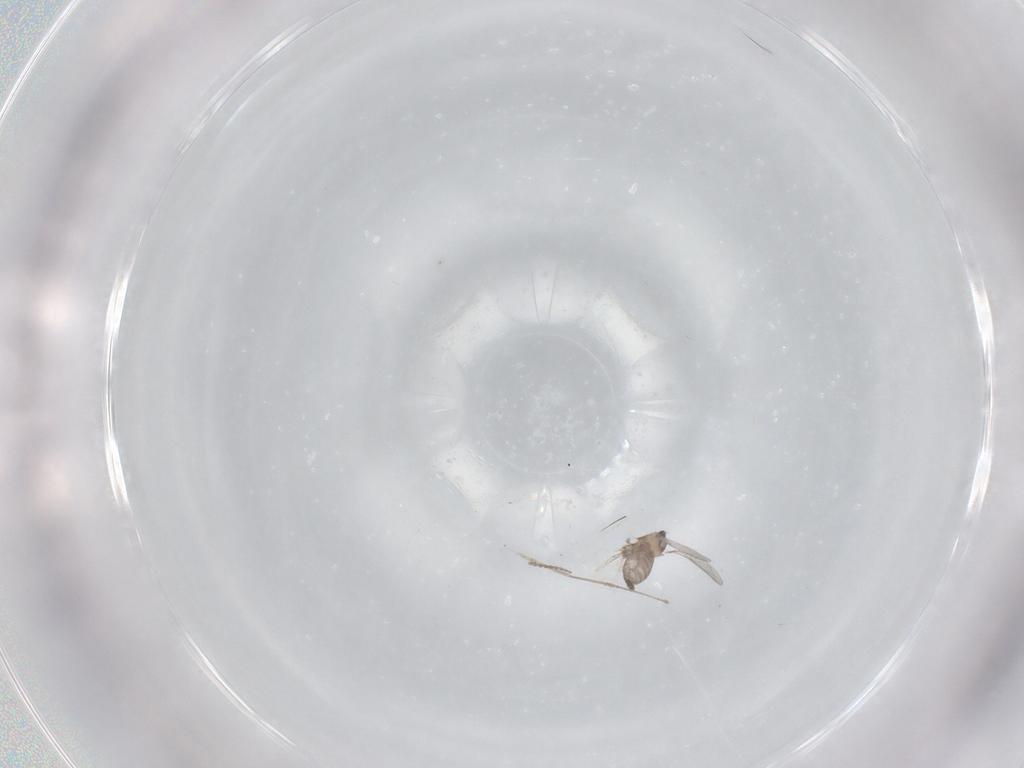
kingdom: Animalia
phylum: Arthropoda
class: Insecta
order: Diptera
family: Cecidomyiidae
